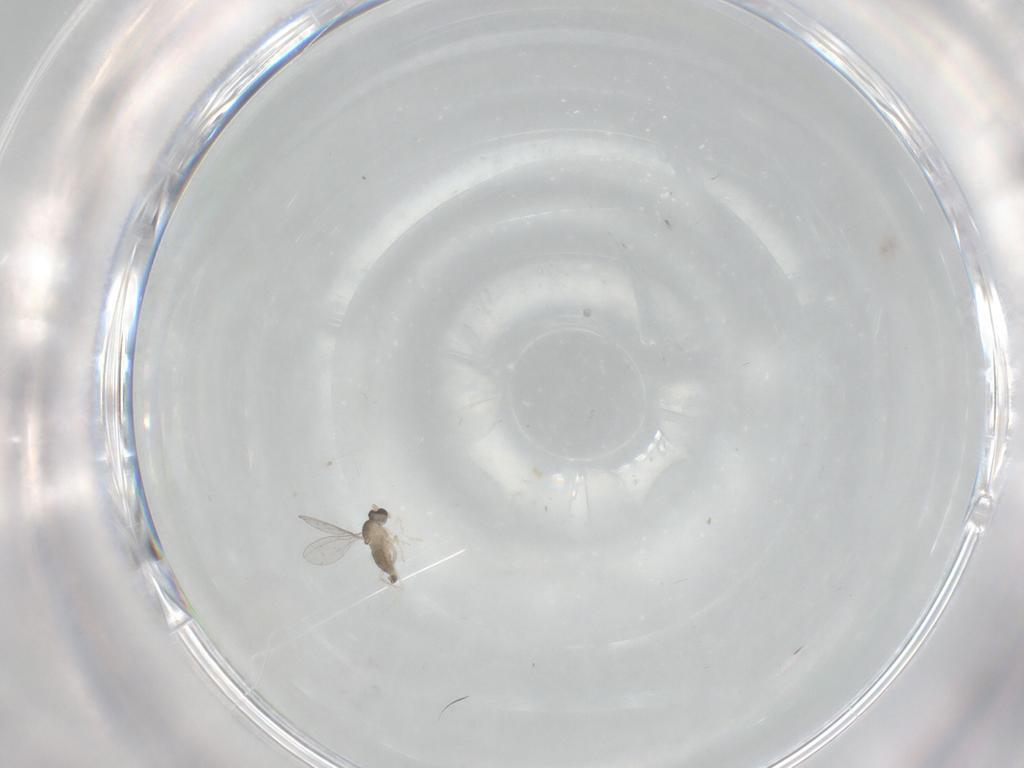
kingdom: Animalia
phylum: Arthropoda
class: Insecta
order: Diptera
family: Cecidomyiidae
